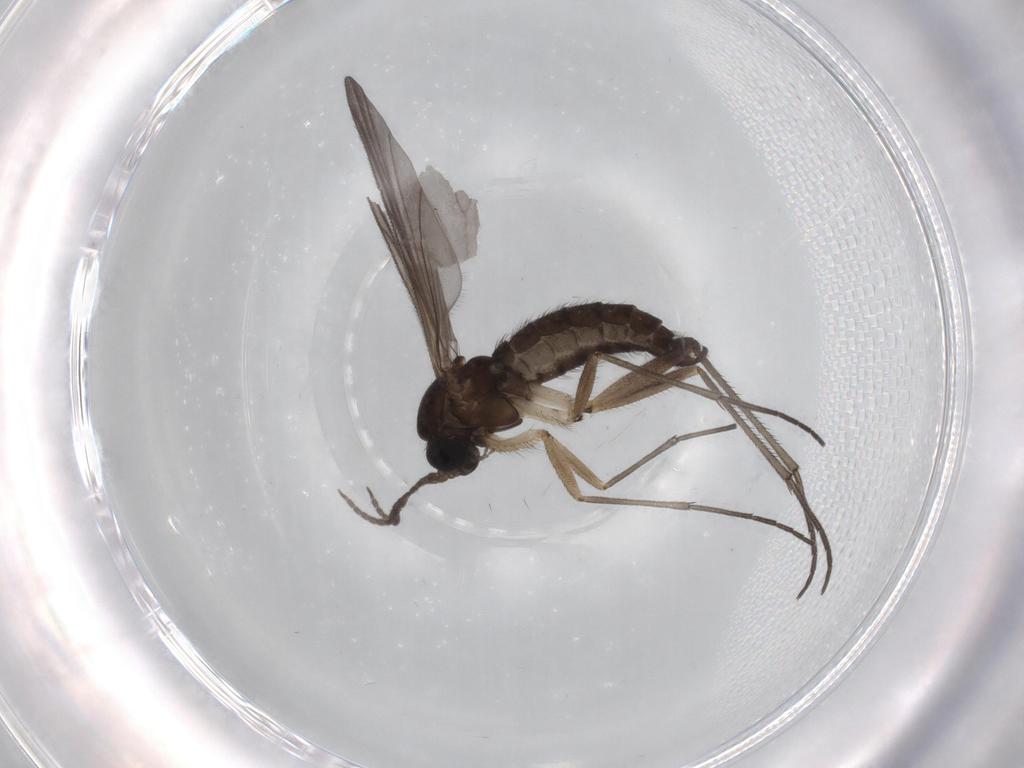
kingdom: Animalia
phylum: Arthropoda
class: Insecta
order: Diptera
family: Sciaridae
